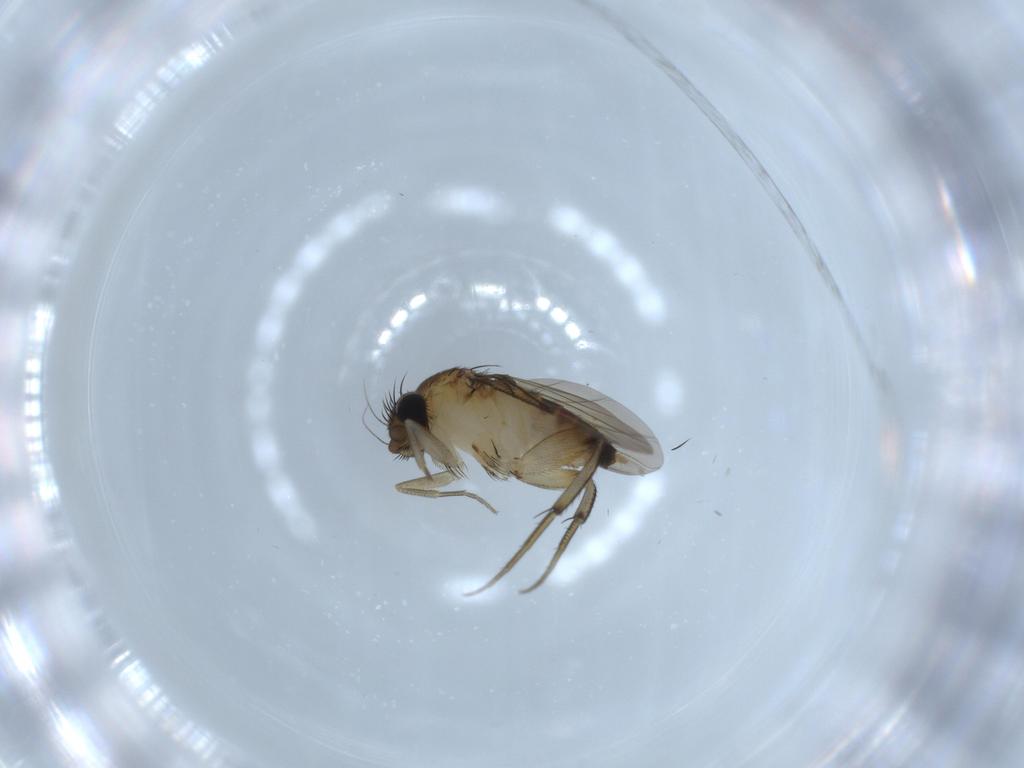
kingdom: Animalia
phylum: Arthropoda
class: Insecta
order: Diptera
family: Phoridae
